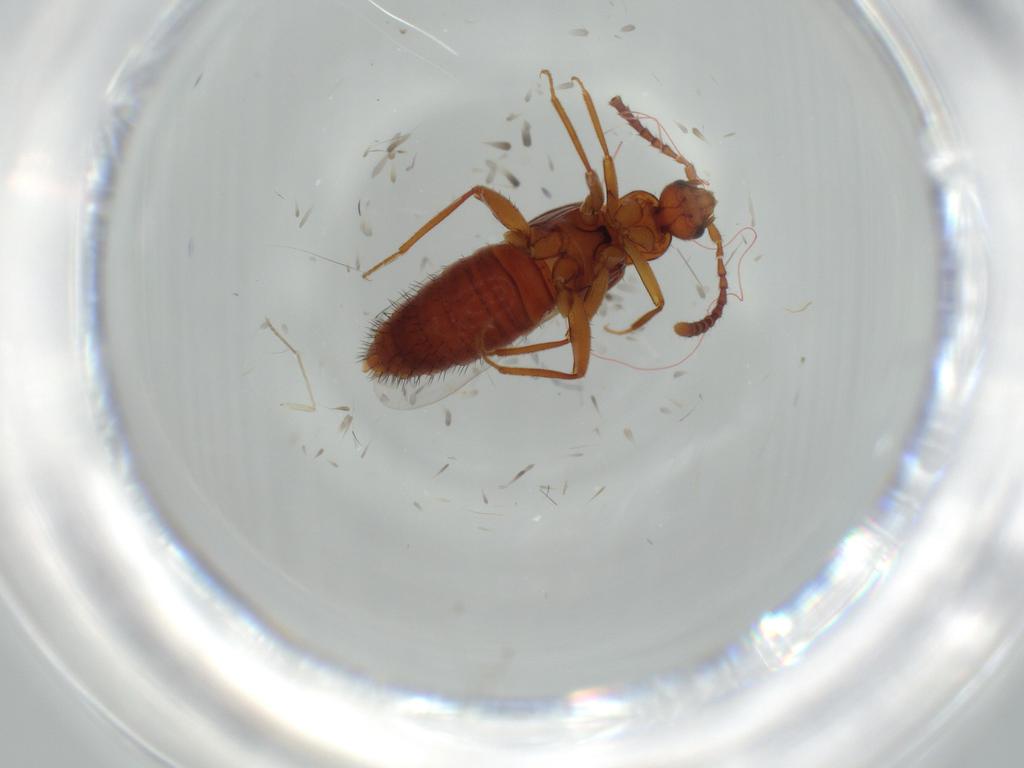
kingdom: Animalia
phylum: Arthropoda
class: Insecta
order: Coleoptera
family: Staphylinidae
